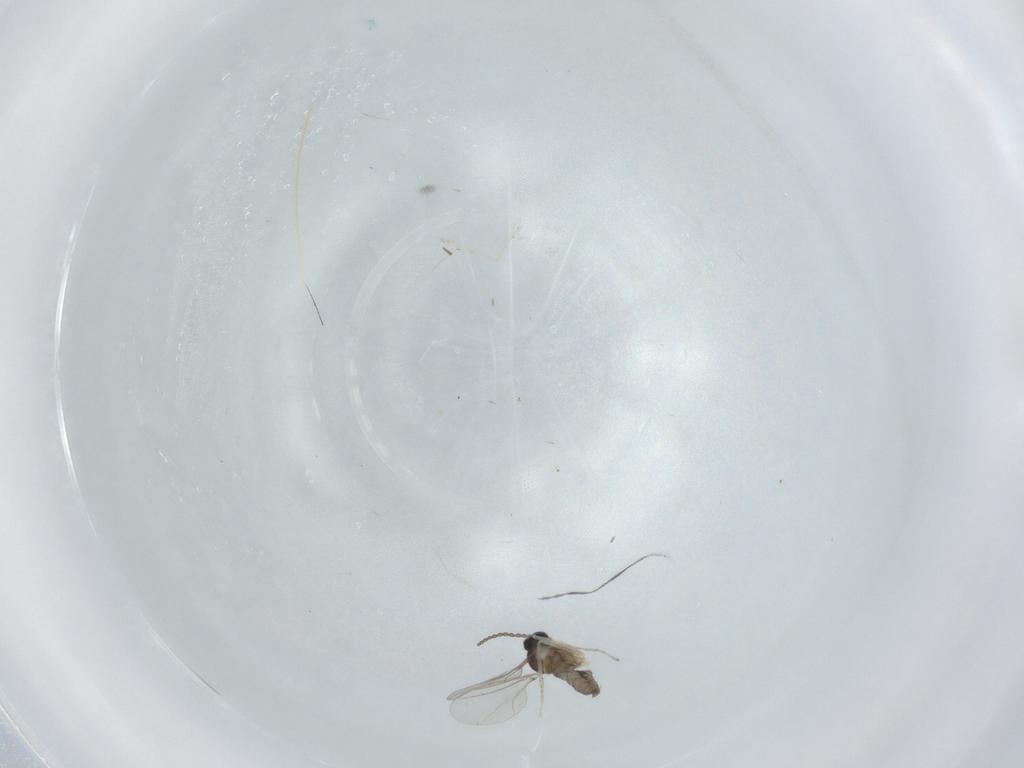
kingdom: Animalia
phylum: Arthropoda
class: Insecta
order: Diptera
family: Cecidomyiidae
